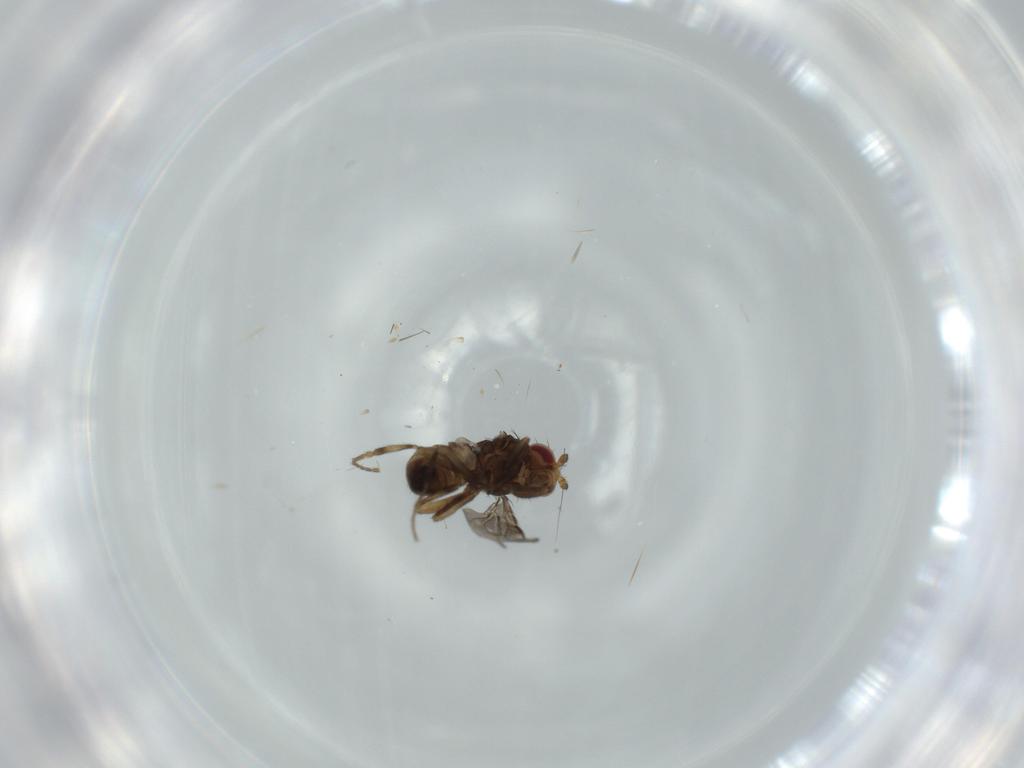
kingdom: Animalia
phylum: Arthropoda
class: Insecta
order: Diptera
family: Sphaeroceridae
